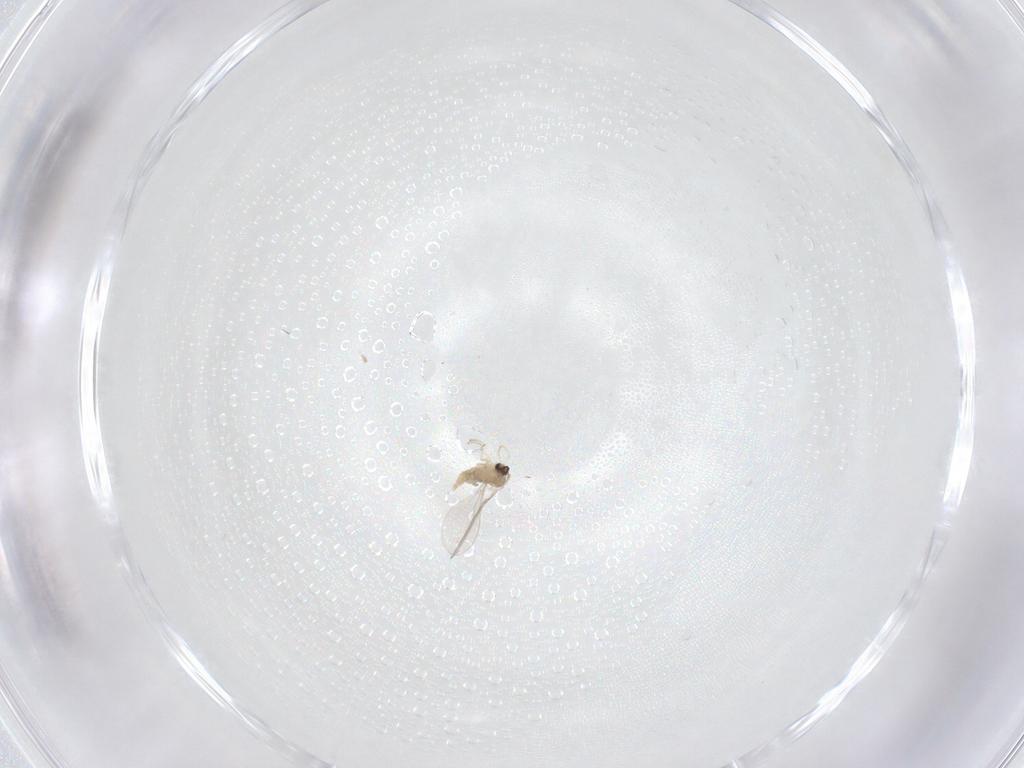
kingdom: Animalia
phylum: Arthropoda
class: Insecta
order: Diptera
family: Cecidomyiidae
